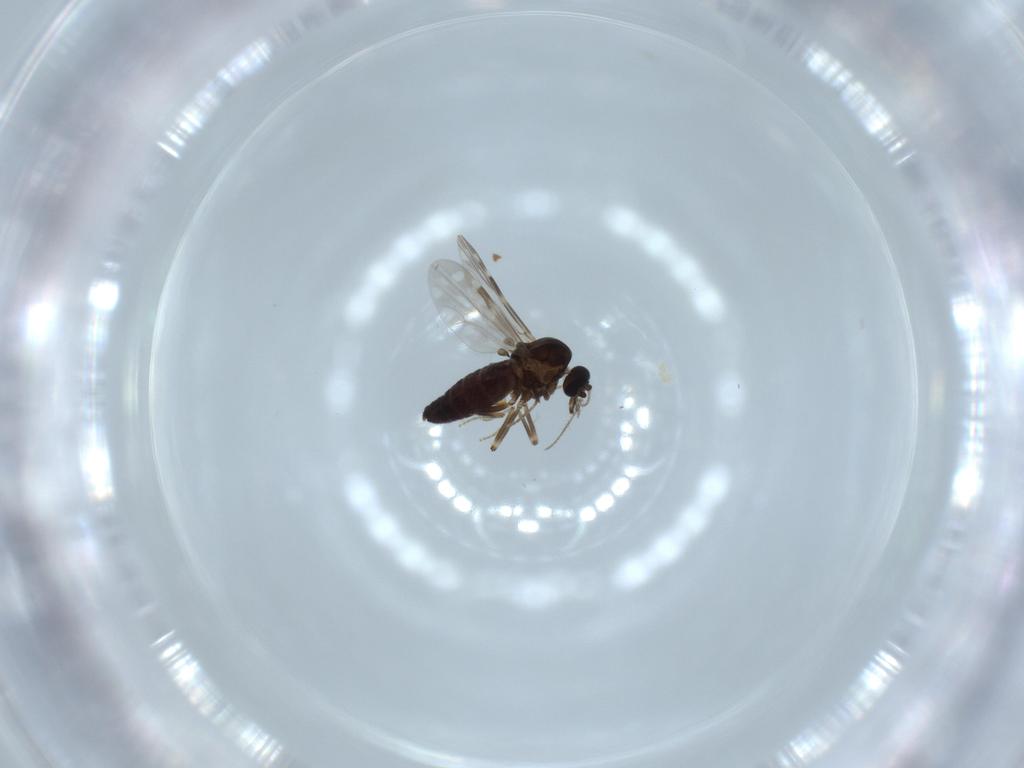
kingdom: Animalia
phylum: Arthropoda
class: Insecta
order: Diptera
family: Ceratopogonidae
